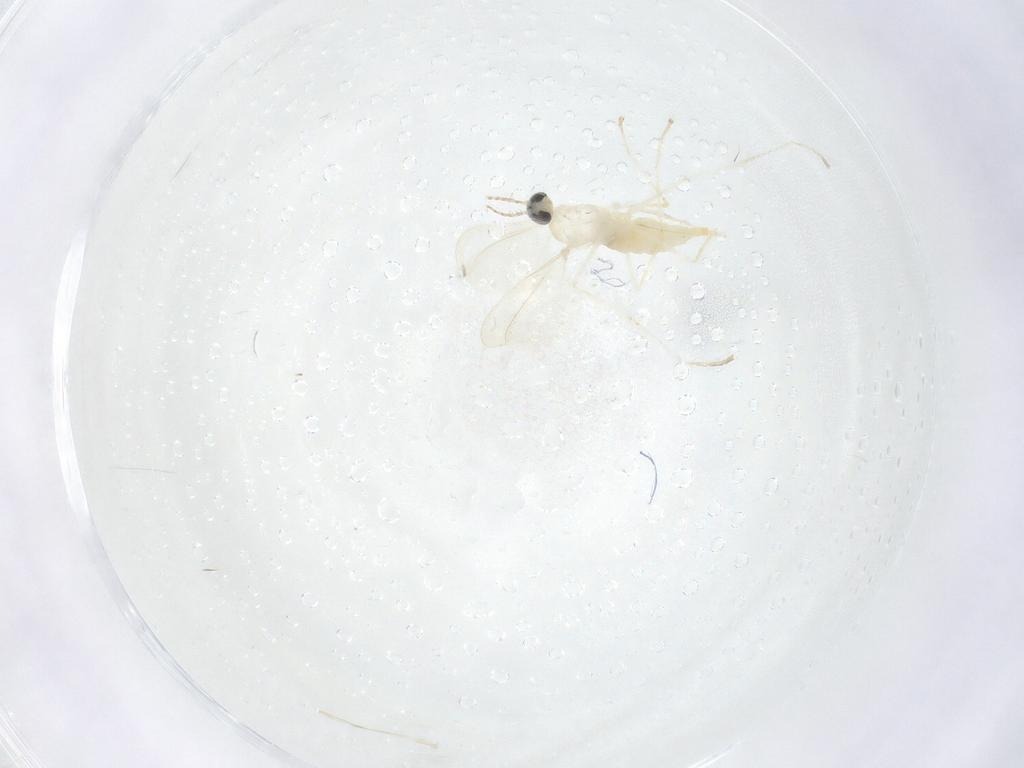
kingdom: Animalia
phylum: Arthropoda
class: Insecta
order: Diptera
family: Cecidomyiidae
